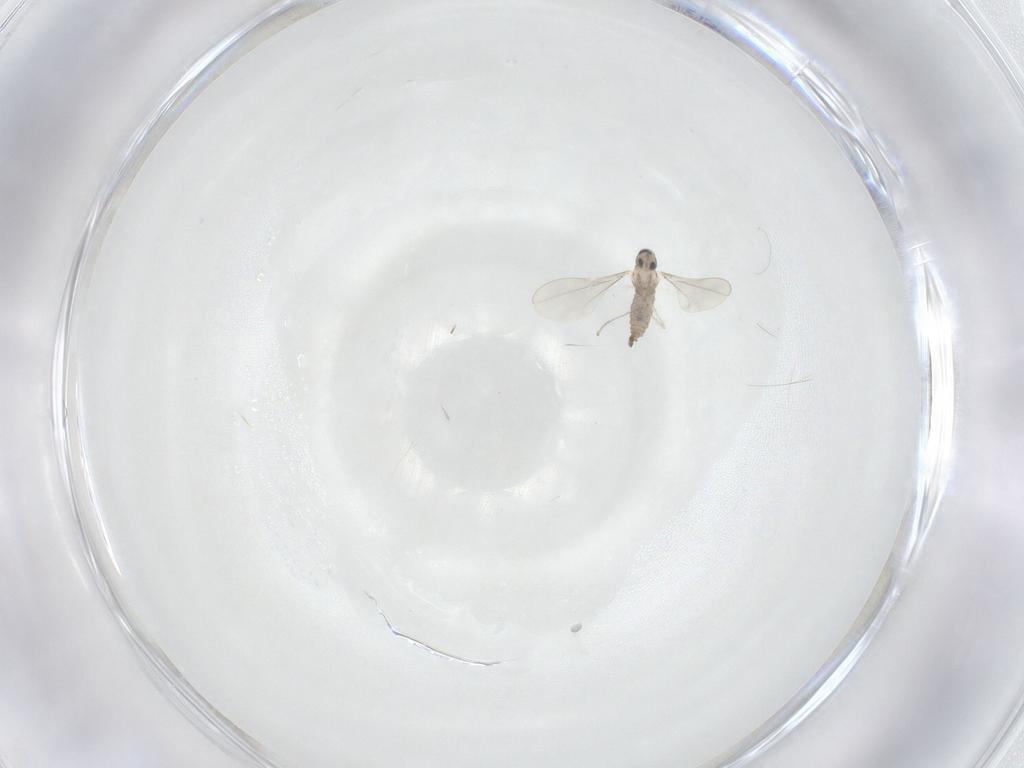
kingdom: Animalia
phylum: Arthropoda
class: Insecta
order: Diptera
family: Cecidomyiidae
